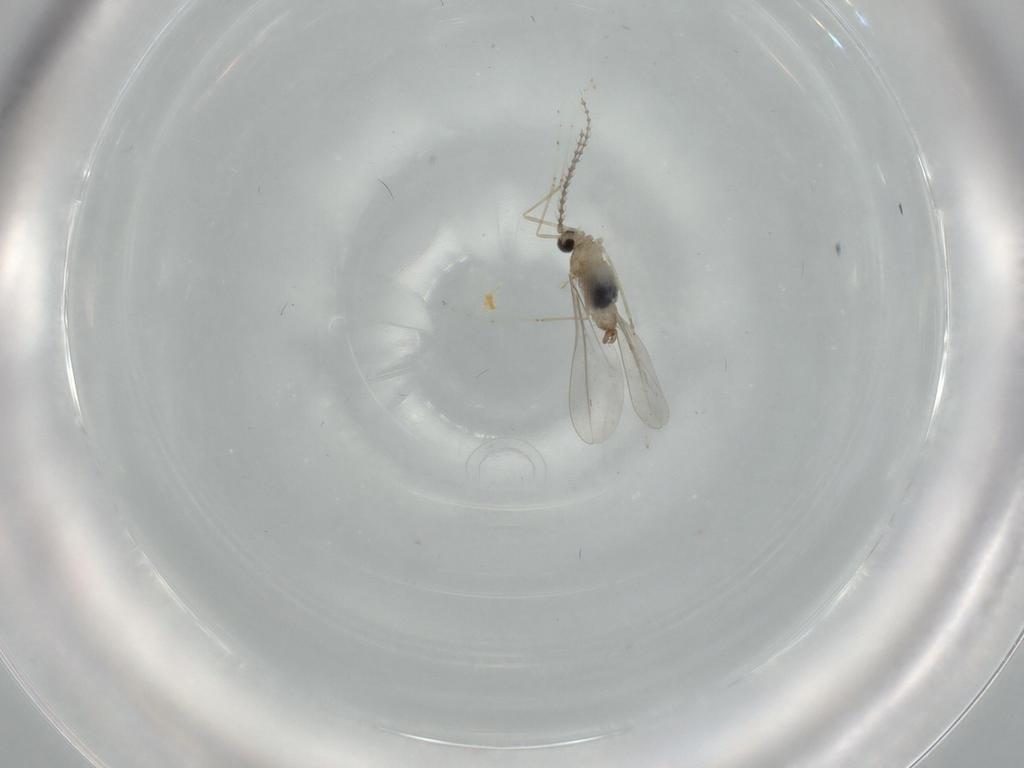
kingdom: Animalia
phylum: Arthropoda
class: Insecta
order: Diptera
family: Cecidomyiidae
